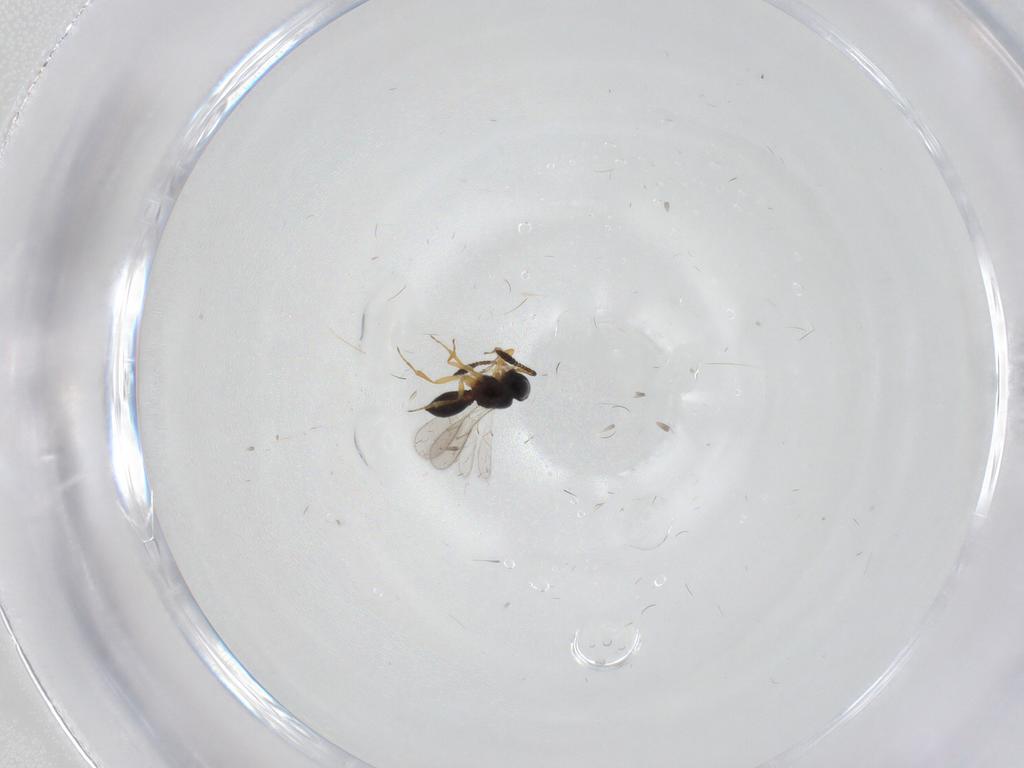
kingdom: Animalia
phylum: Arthropoda
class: Insecta
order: Hymenoptera
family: Scelionidae
